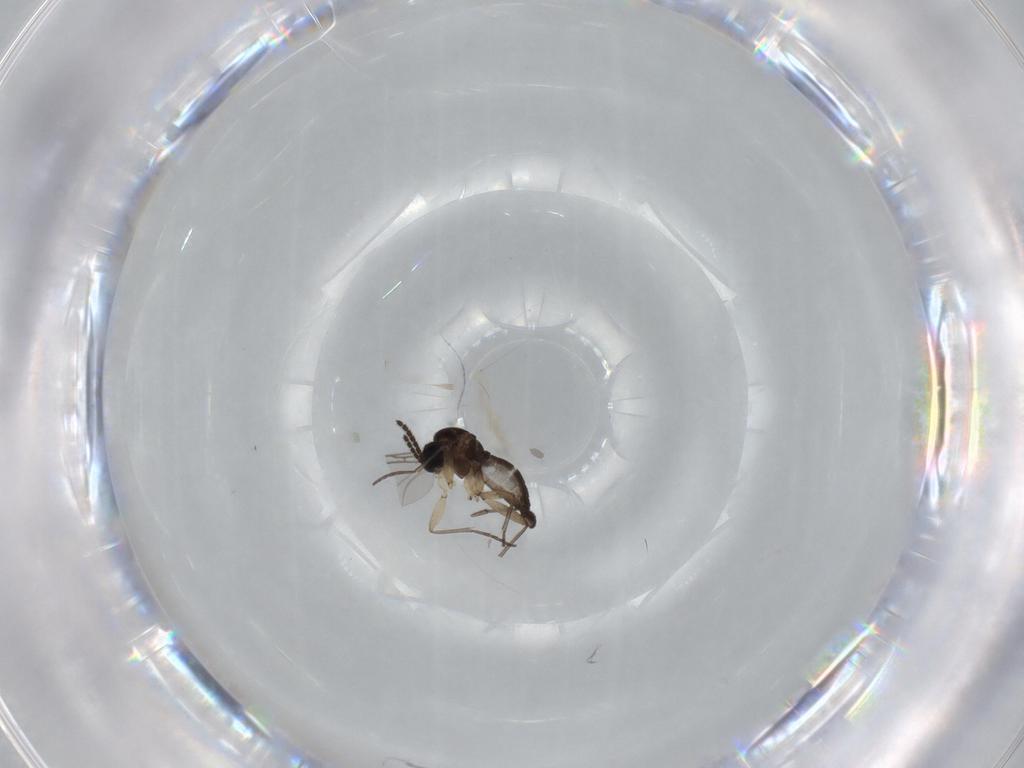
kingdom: Animalia
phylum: Arthropoda
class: Insecta
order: Diptera
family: Sciaridae
